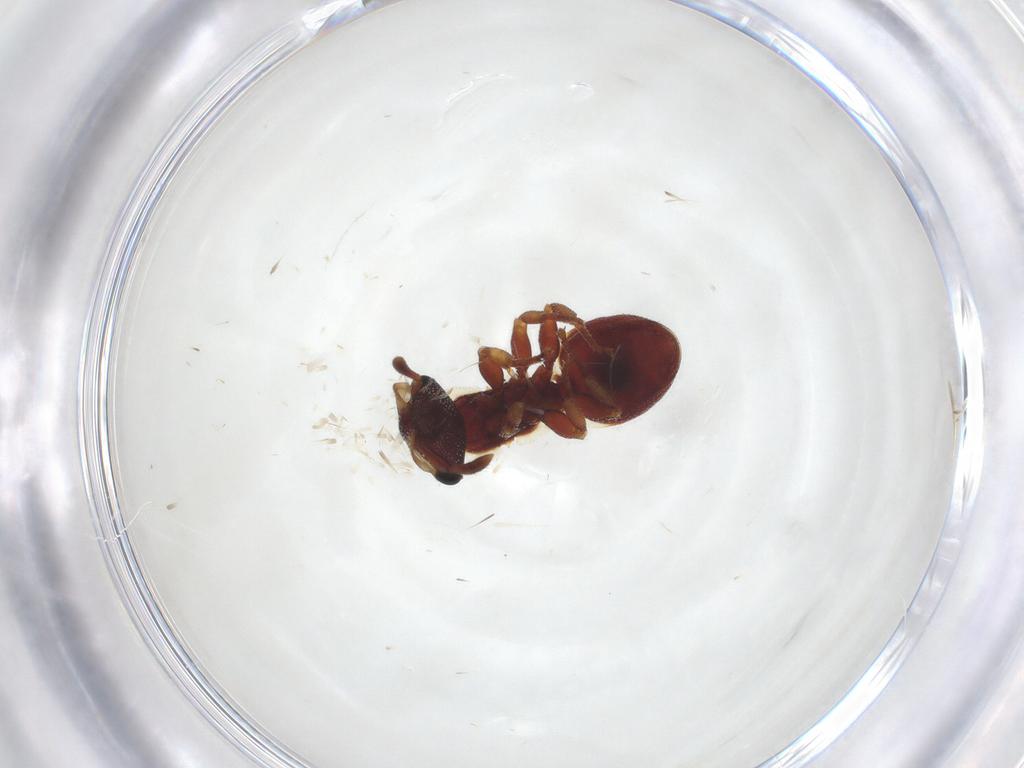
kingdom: Animalia
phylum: Arthropoda
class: Insecta
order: Hymenoptera
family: Formicidae
